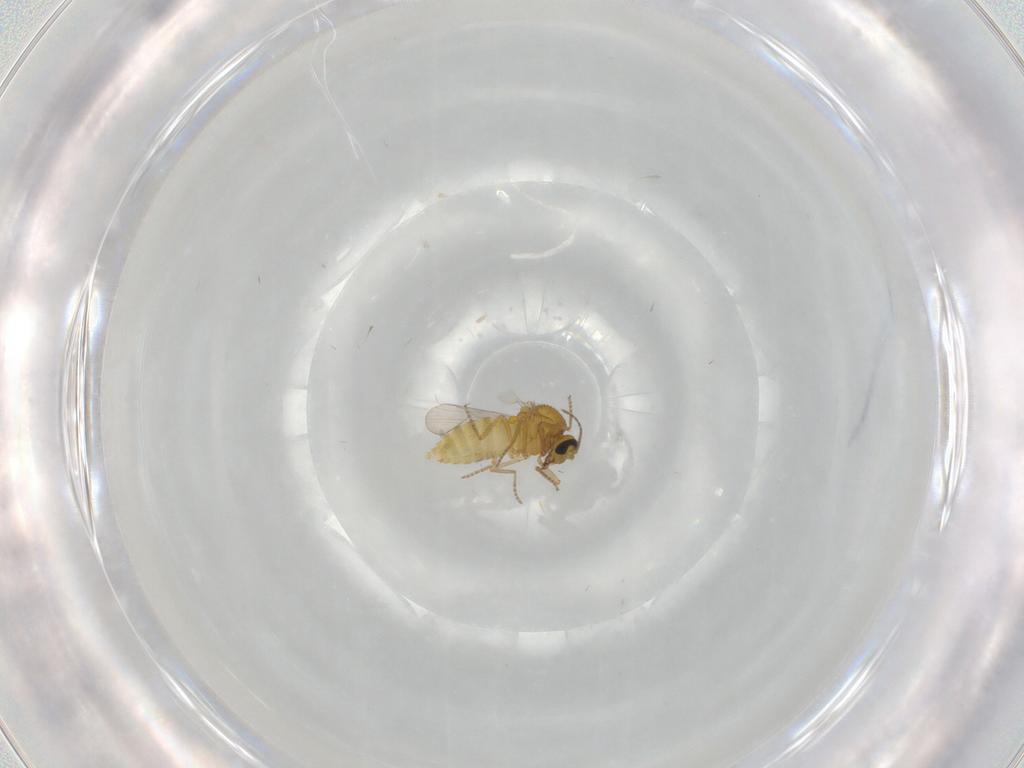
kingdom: Animalia
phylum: Arthropoda
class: Insecta
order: Diptera
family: Ceratopogonidae
